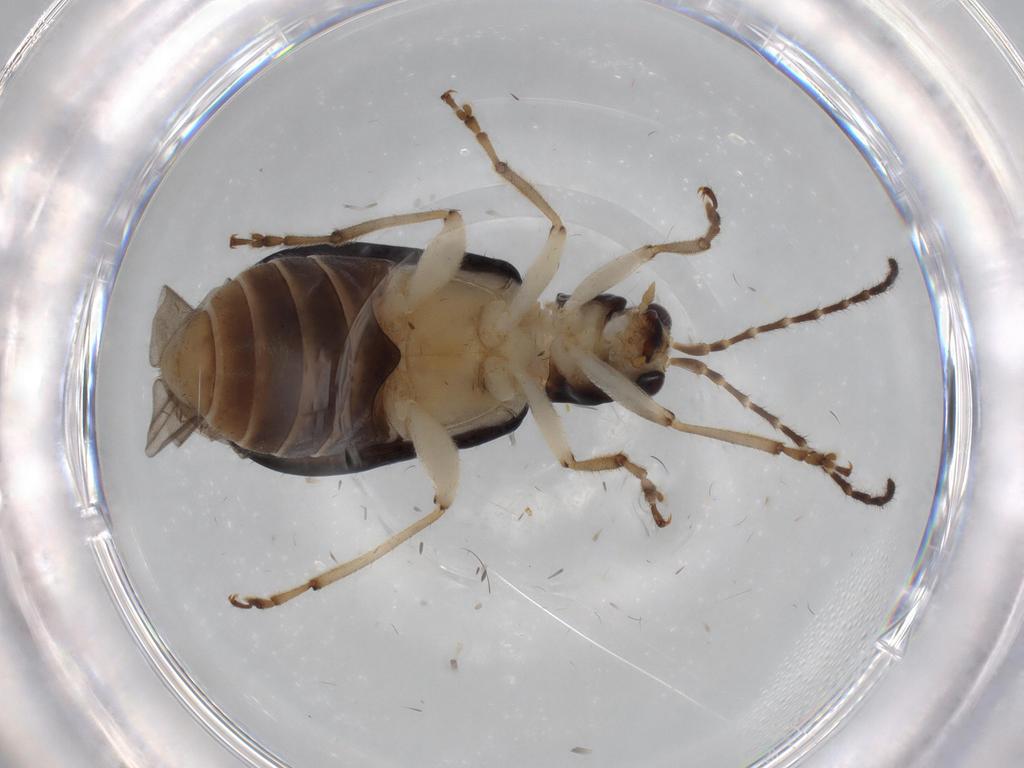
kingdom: Animalia
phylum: Arthropoda
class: Insecta
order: Coleoptera
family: Chrysomelidae
